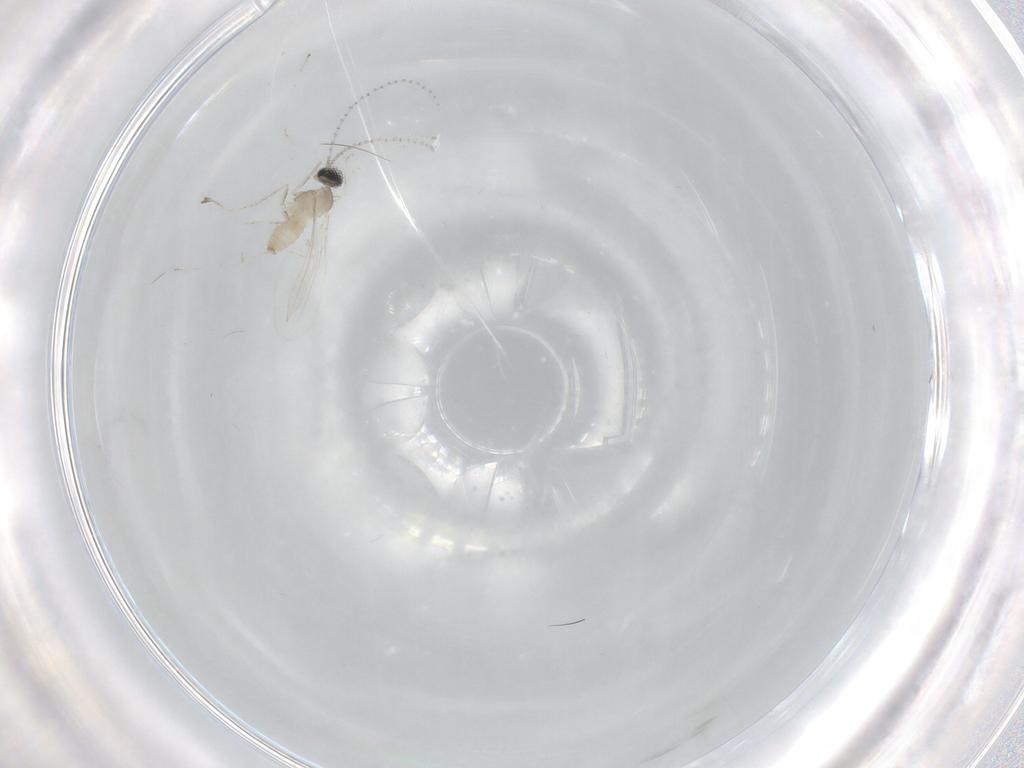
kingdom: Animalia
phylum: Arthropoda
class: Insecta
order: Diptera
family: Cecidomyiidae
